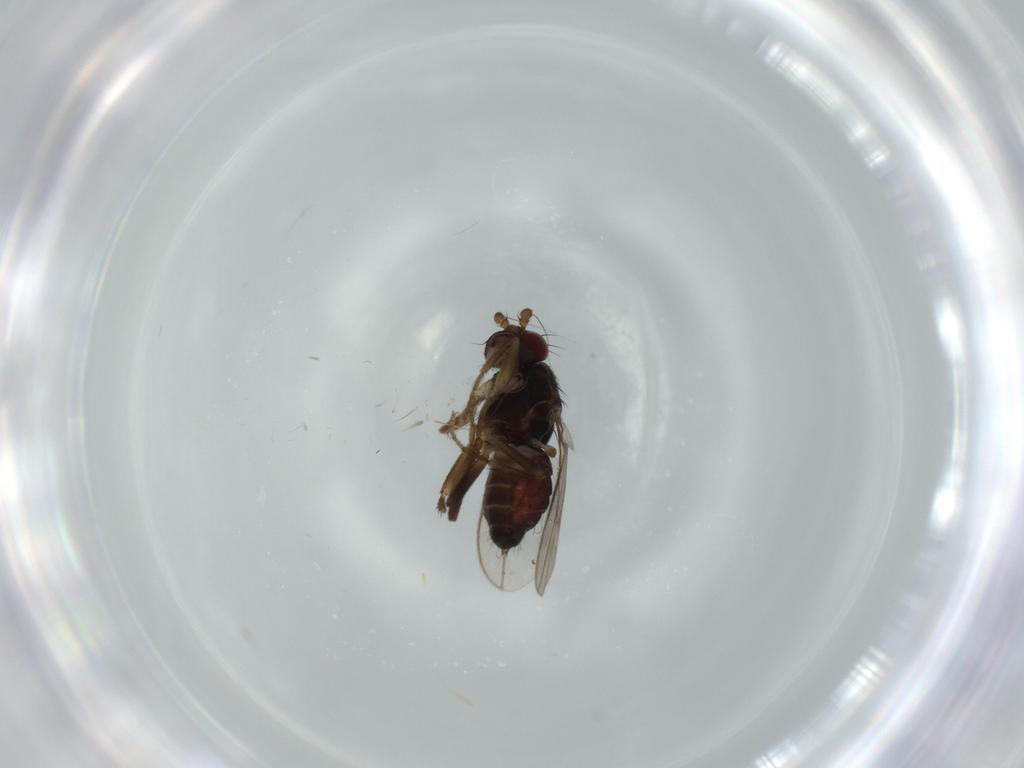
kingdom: Animalia
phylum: Arthropoda
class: Insecta
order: Diptera
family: Sphaeroceridae
